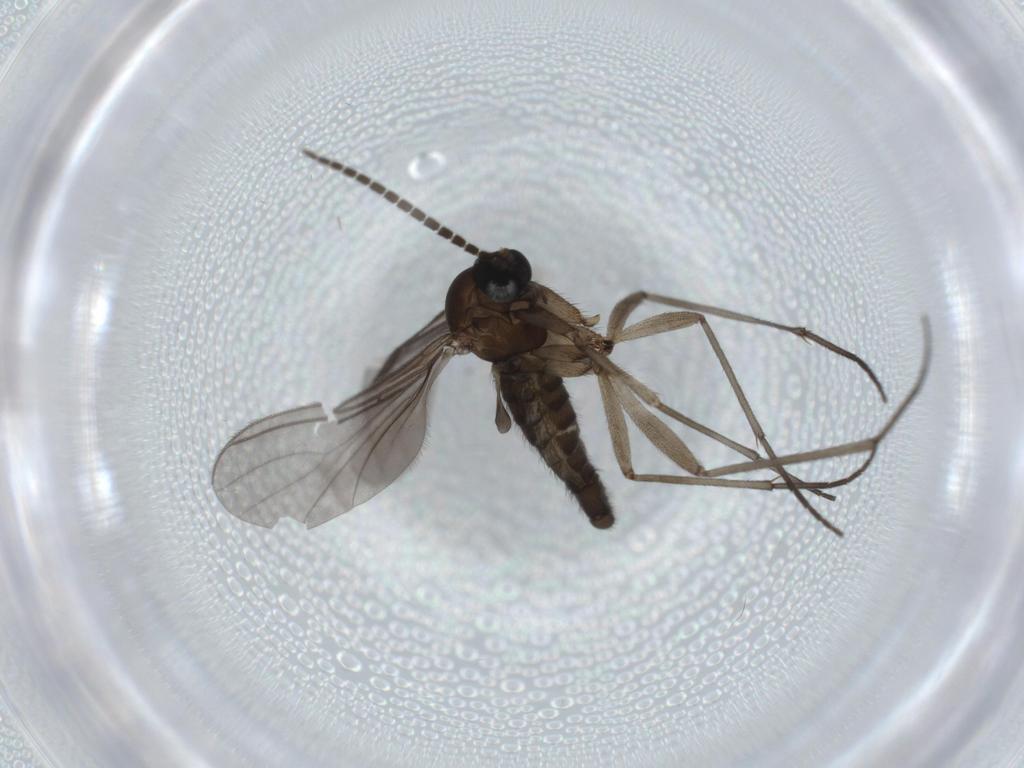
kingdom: Animalia
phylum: Arthropoda
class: Insecta
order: Diptera
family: Sciaridae
